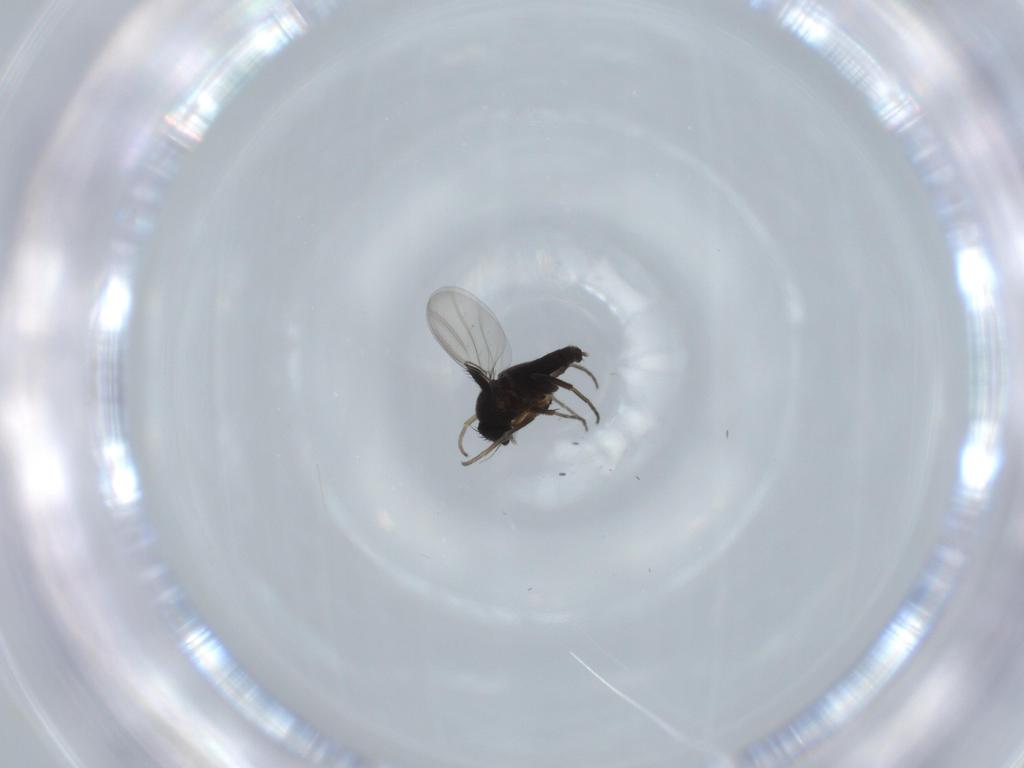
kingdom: Animalia
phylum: Arthropoda
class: Insecta
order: Diptera
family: Phoridae
